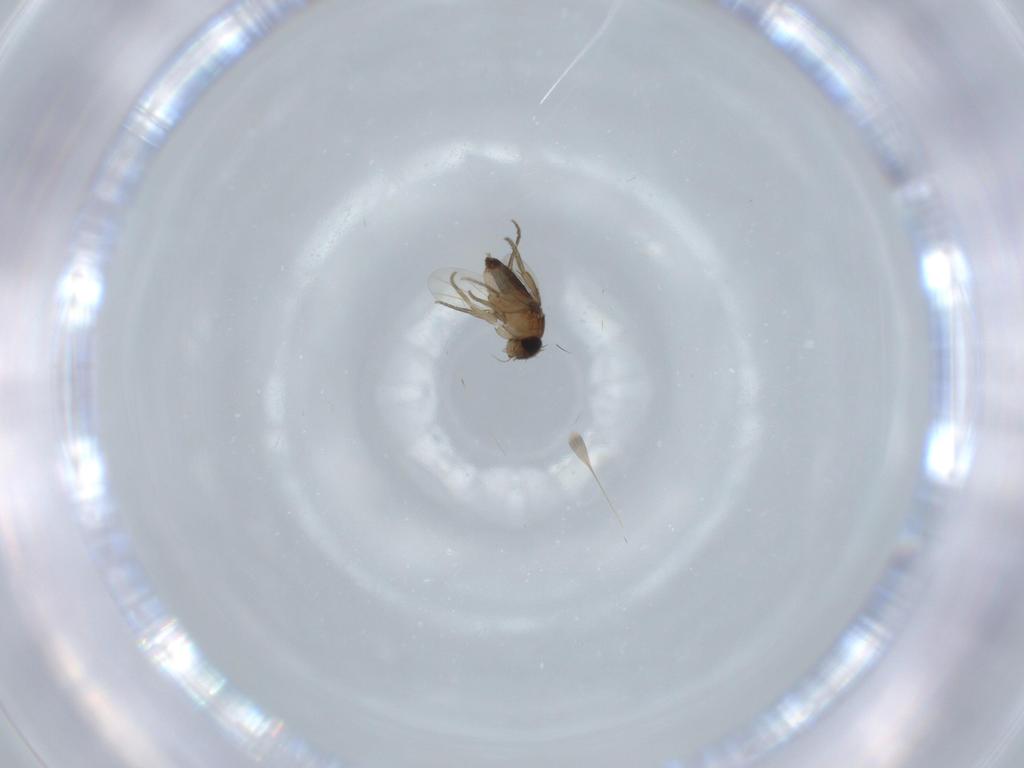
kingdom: Animalia
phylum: Arthropoda
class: Insecta
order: Diptera
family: Phoridae
